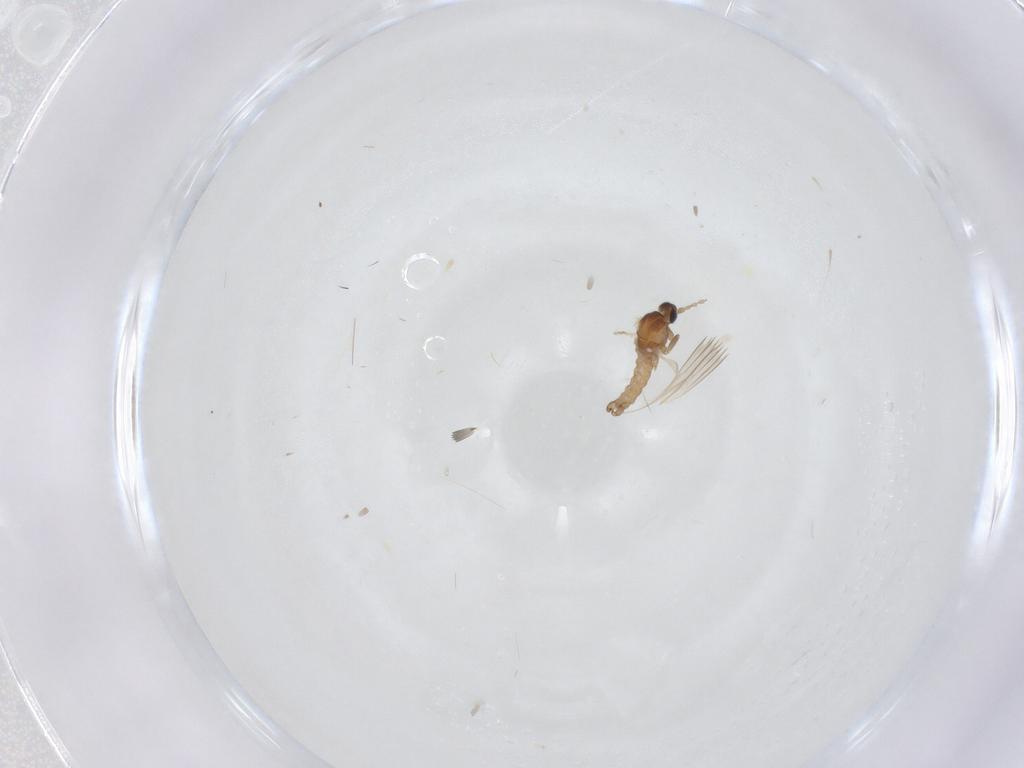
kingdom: Animalia
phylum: Arthropoda
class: Insecta
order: Diptera
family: Cecidomyiidae
